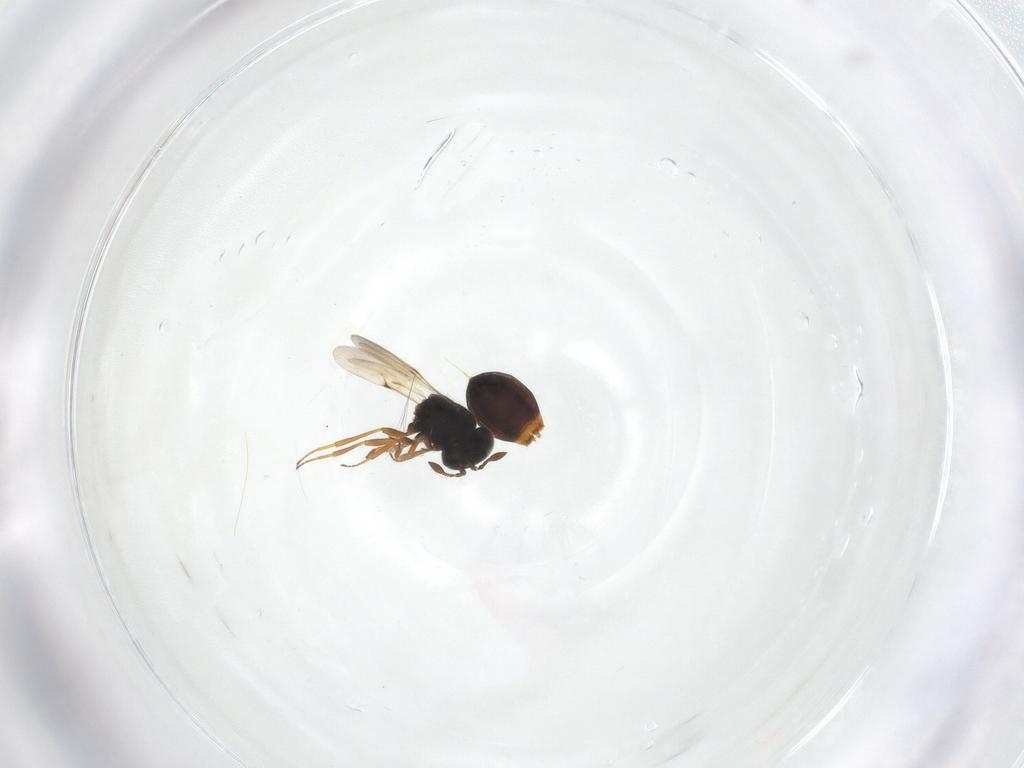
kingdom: Animalia
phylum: Arthropoda
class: Insecta
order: Hymenoptera
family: Scelionidae
